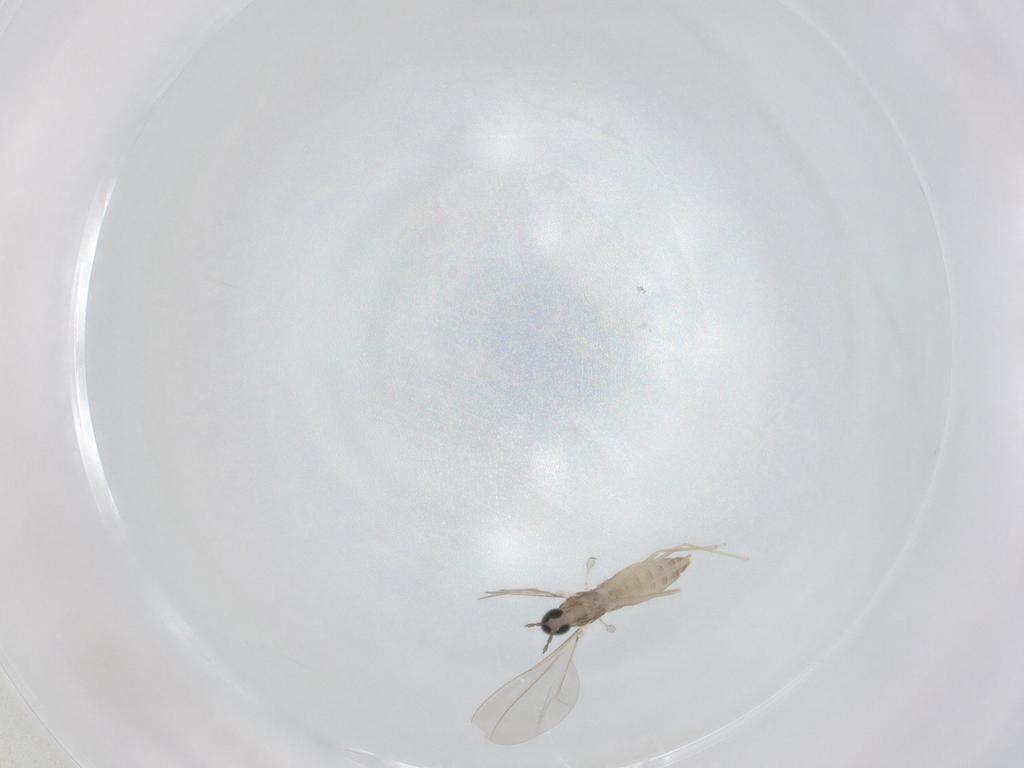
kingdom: Animalia
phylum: Arthropoda
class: Insecta
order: Diptera
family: Cecidomyiidae
